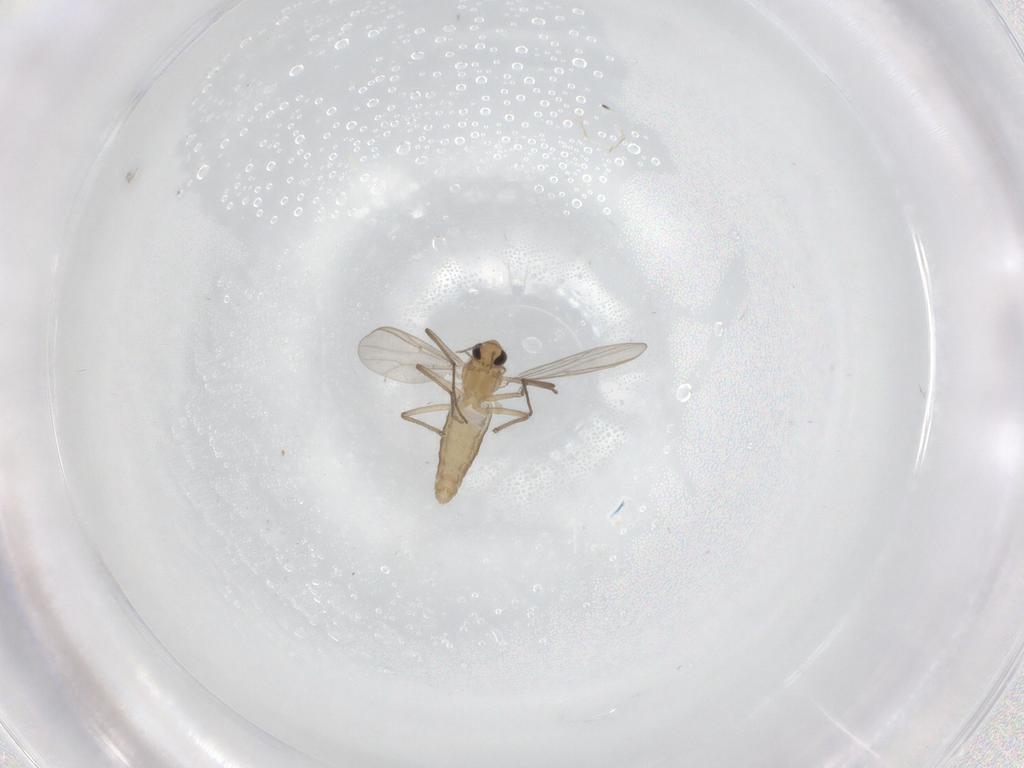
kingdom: Animalia
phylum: Arthropoda
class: Insecta
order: Diptera
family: Chironomidae
